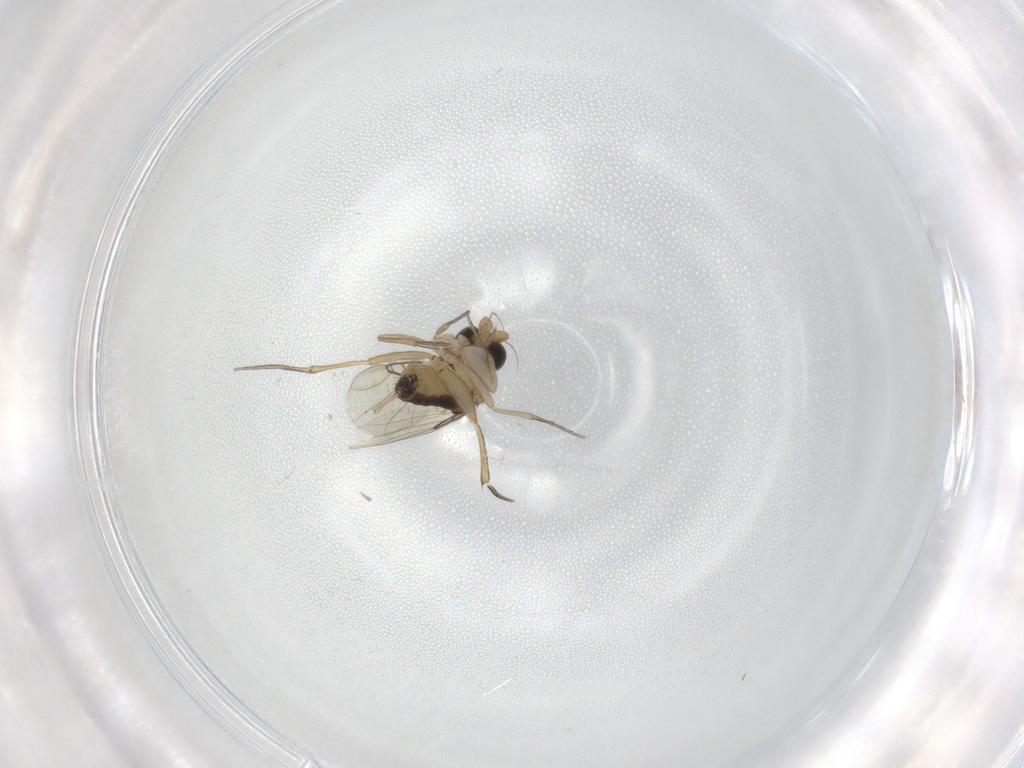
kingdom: Animalia
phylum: Arthropoda
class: Insecta
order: Diptera
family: Phoridae
